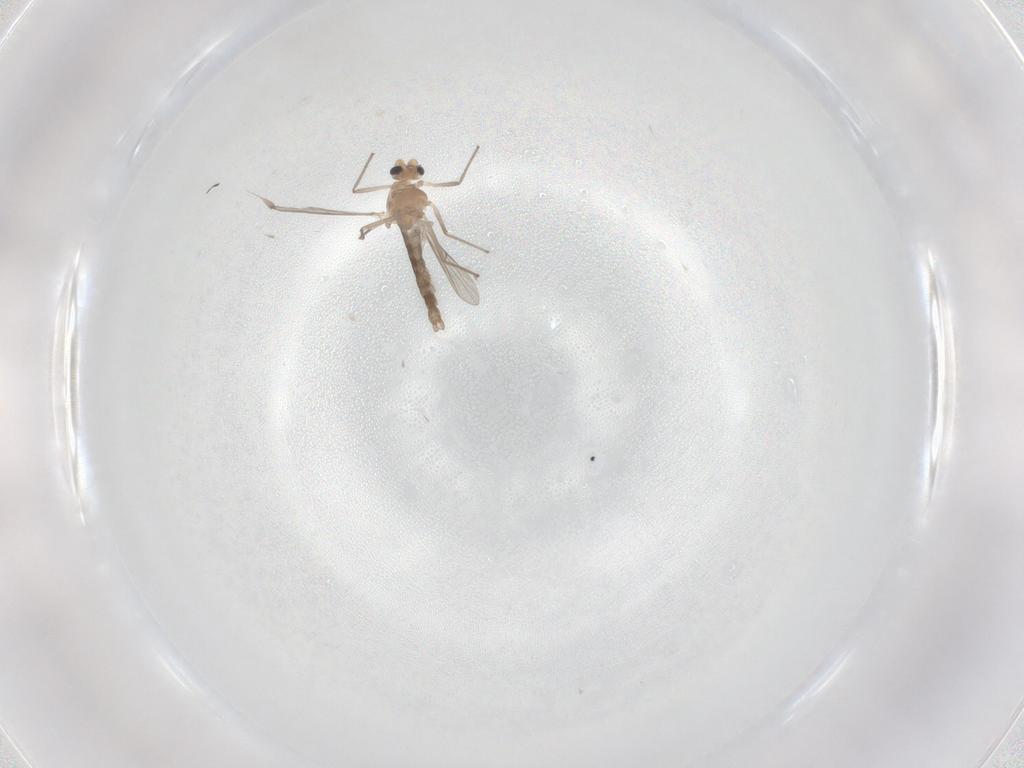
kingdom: Animalia
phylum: Arthropoda
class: Insecta
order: Diptera
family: Chironomidae
